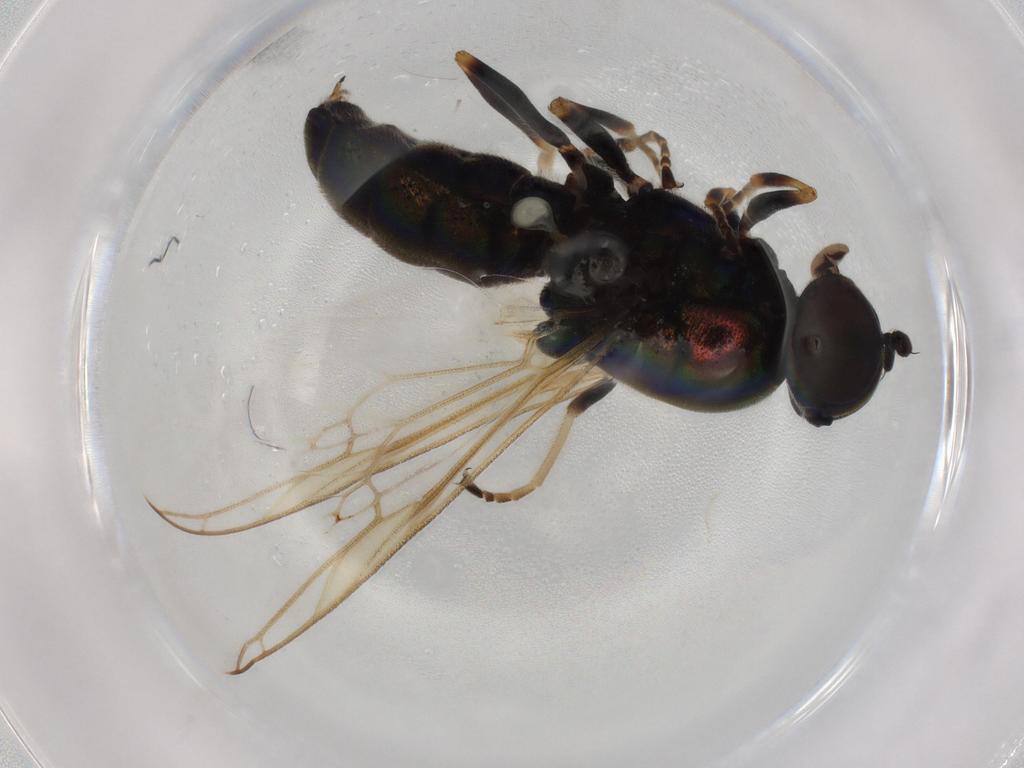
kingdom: Animalia
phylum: Arthropoda
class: Insecta
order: Diptera
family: Stratiomyidae
